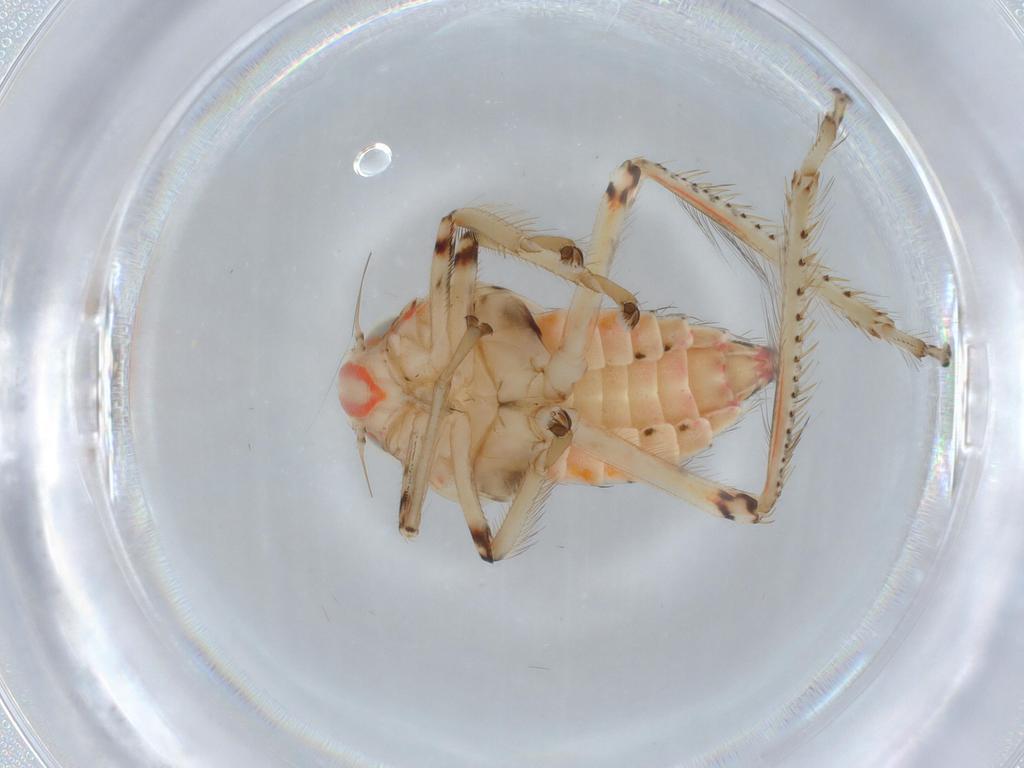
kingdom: Animalia
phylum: Arthropoda
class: Insecta
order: Hemiptera
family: Cicadellidae
